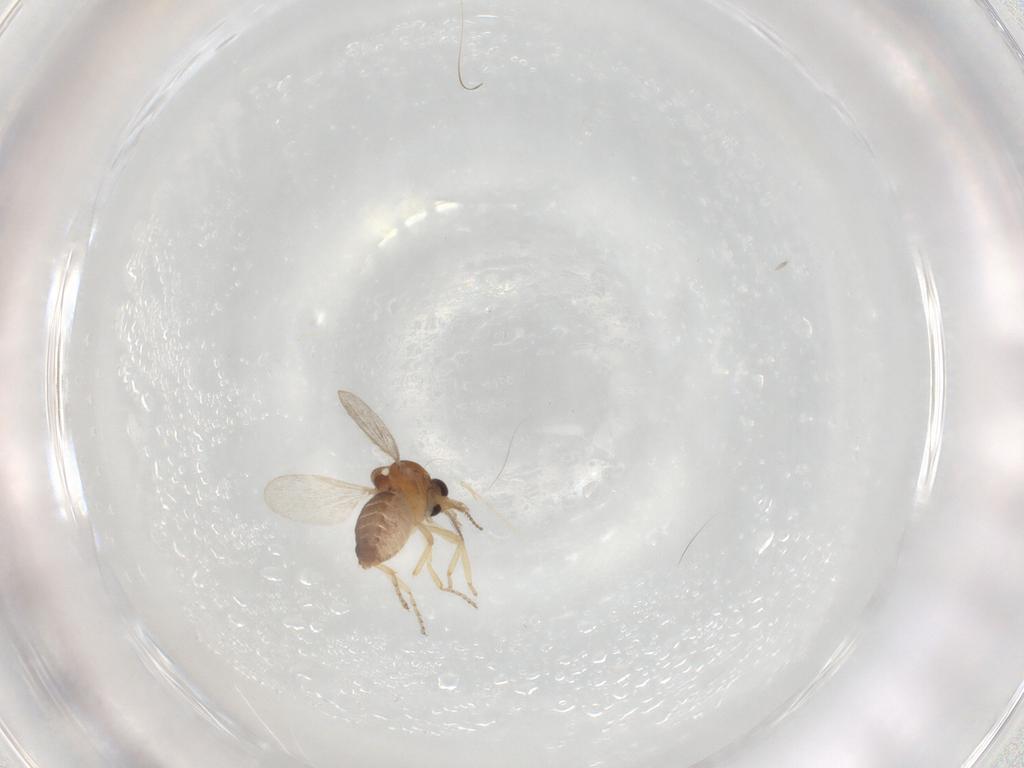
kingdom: Animalia
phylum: Arthropoda
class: Insecta
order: Diptera
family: Ceratopogonidae
